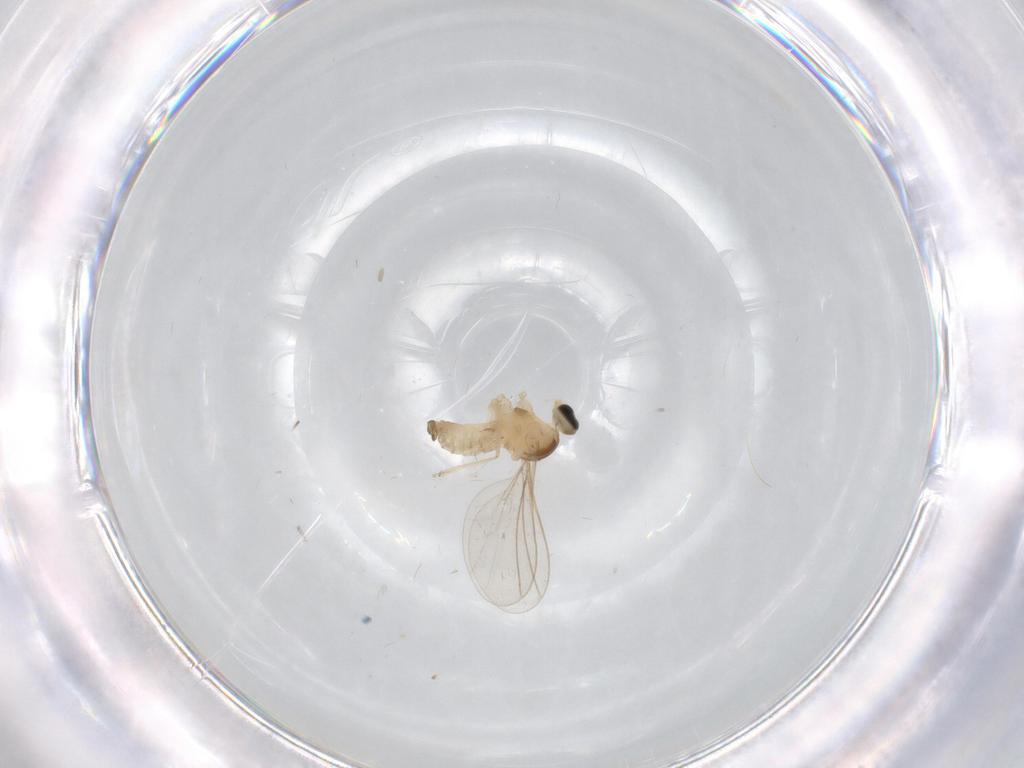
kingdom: Animalia
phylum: Arthropoda
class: Insecta
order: Diptera
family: Cecidomyiidae
